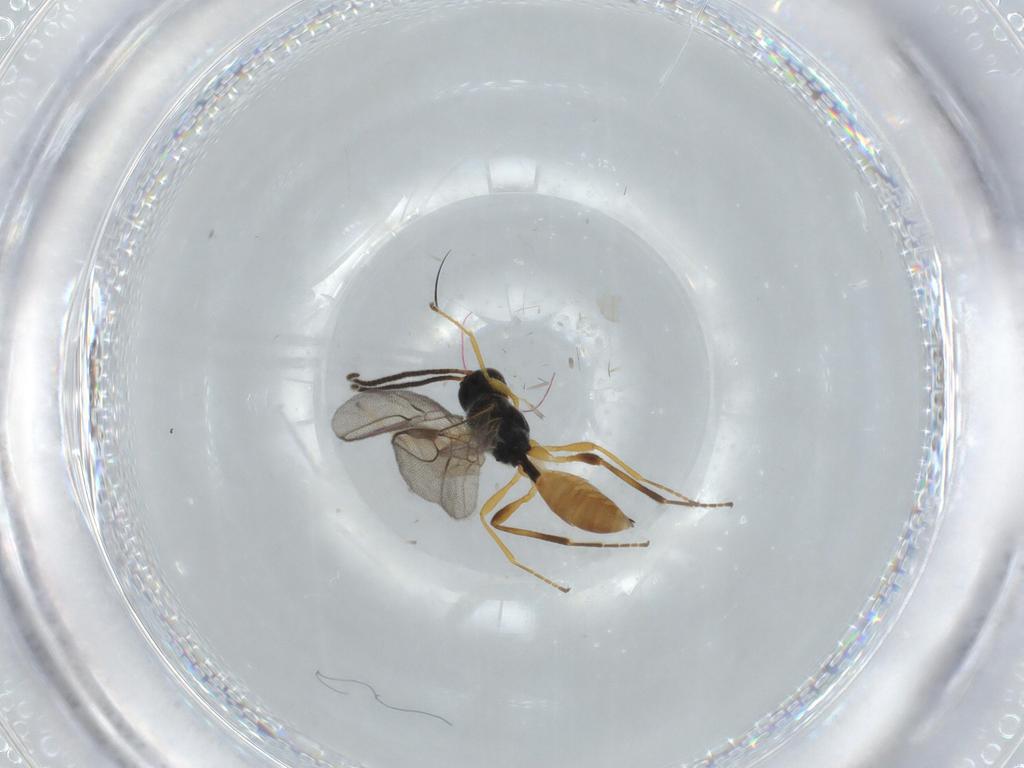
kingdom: Animalia
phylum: Arthropoda
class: Insecta
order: Hymenoptera
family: Braconidae
